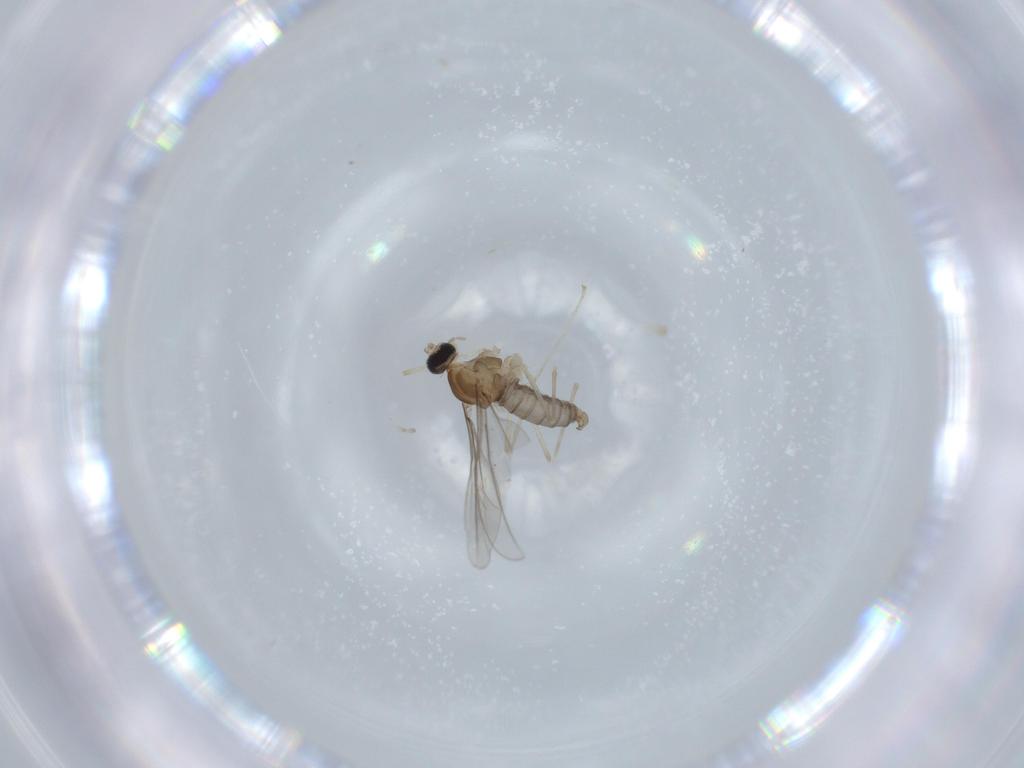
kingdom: Animalia
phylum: Arthropoda
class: Insecta
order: Diptera
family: Cecidomyiidae
